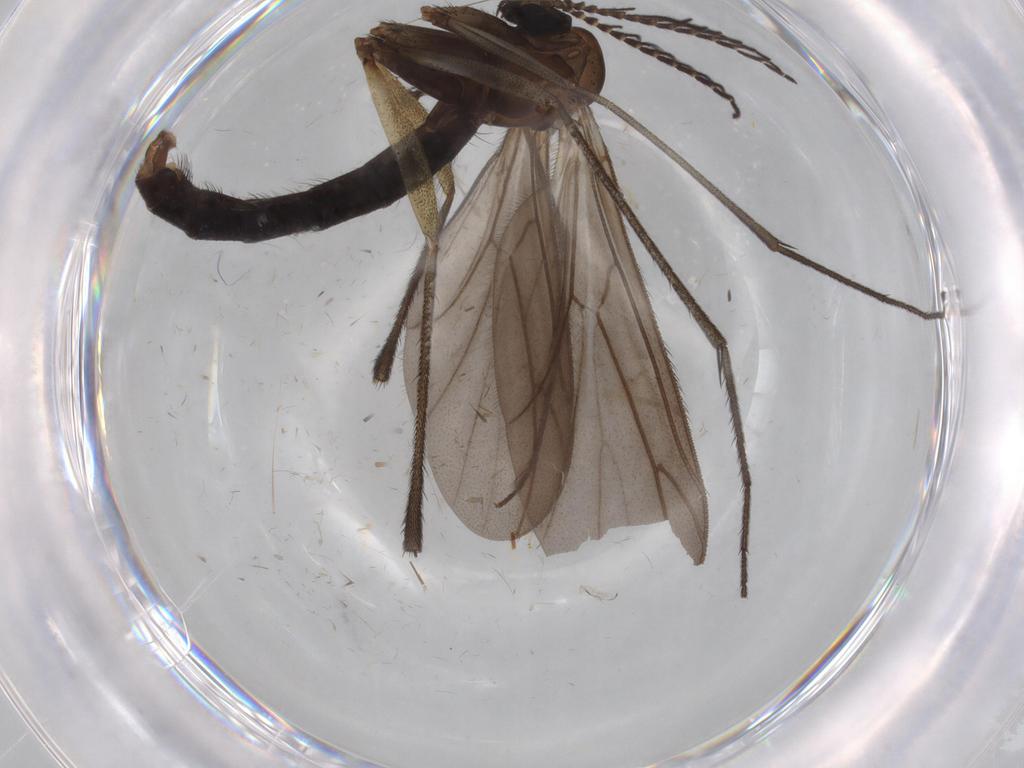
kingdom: Animalia
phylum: Arthropoda
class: Insecta
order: Diptera
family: Sciaridae
